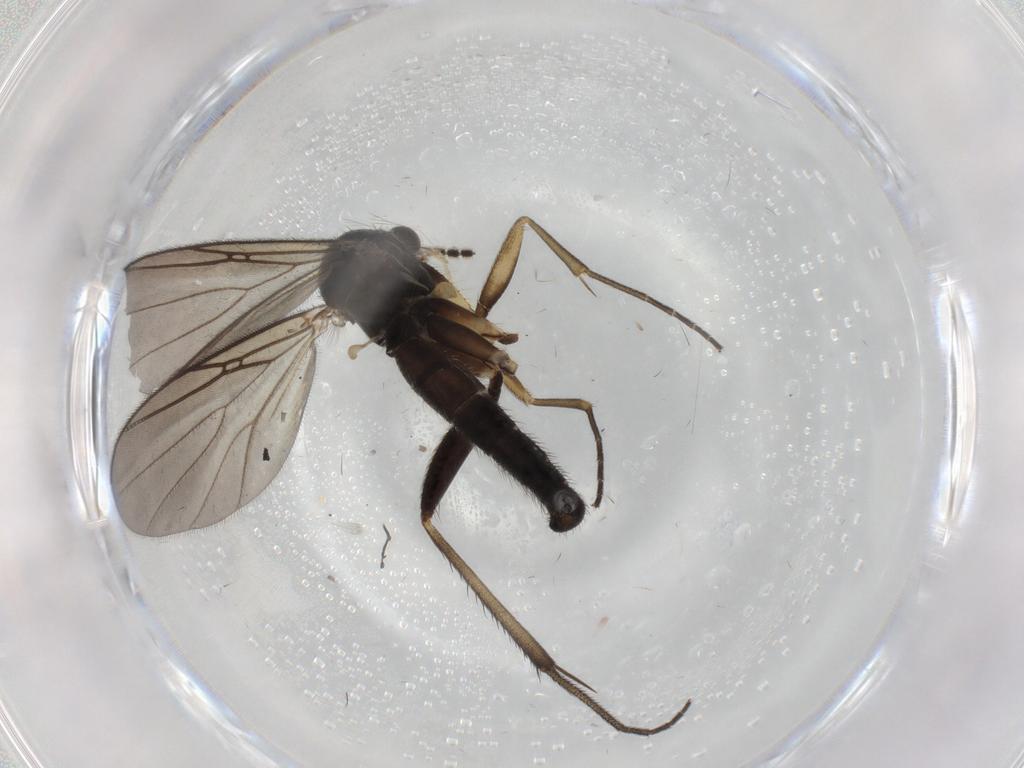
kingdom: Animalia
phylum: Arthropoda
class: Insecta
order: Diptera
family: Mycetophilidae
